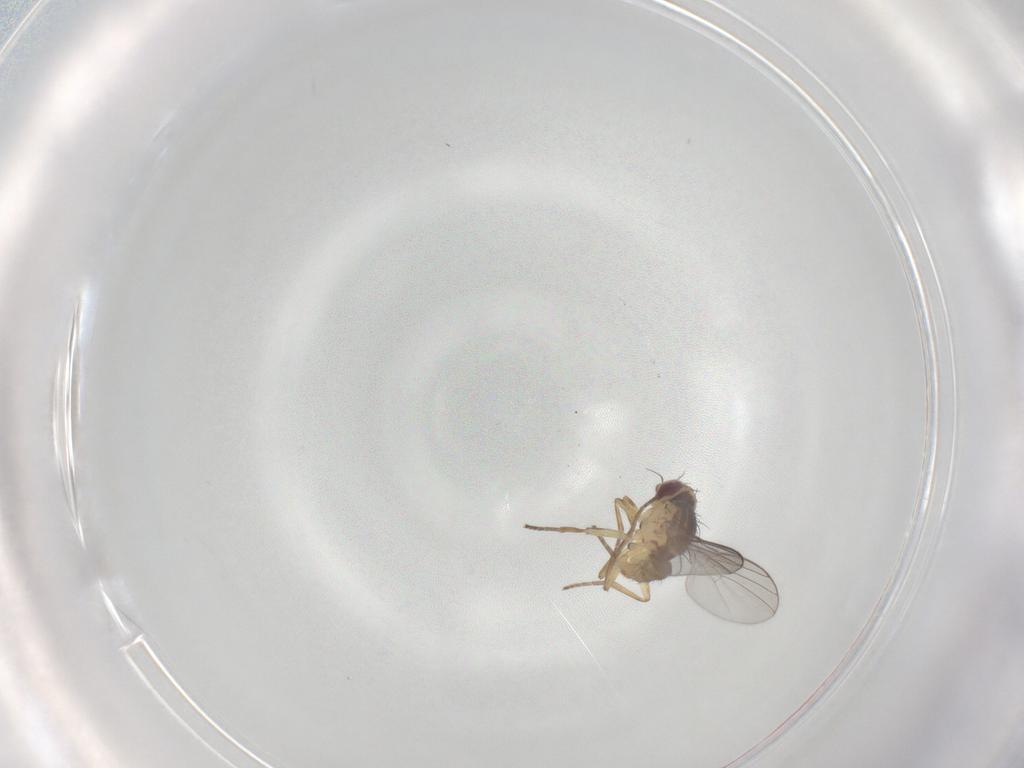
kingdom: Animalia
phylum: Arthropoda
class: Insecta
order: Diptera
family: Agromyzidae
